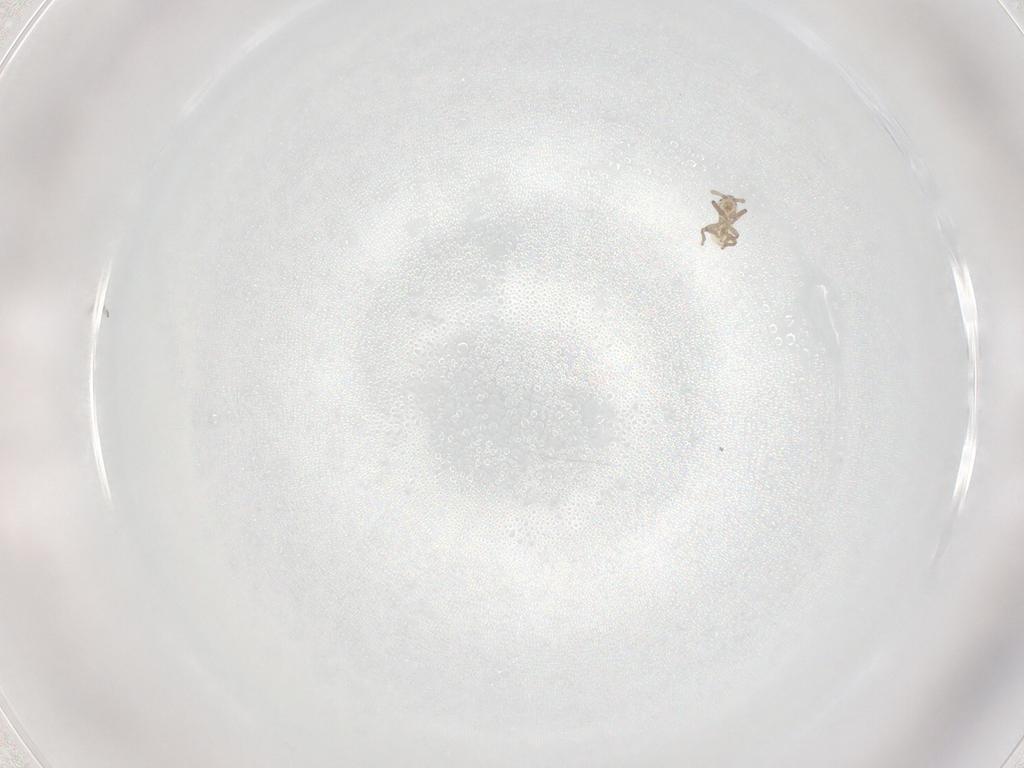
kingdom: Animalia
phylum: Arthropoda
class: Insecta
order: Hemiptera
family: Aphididae
